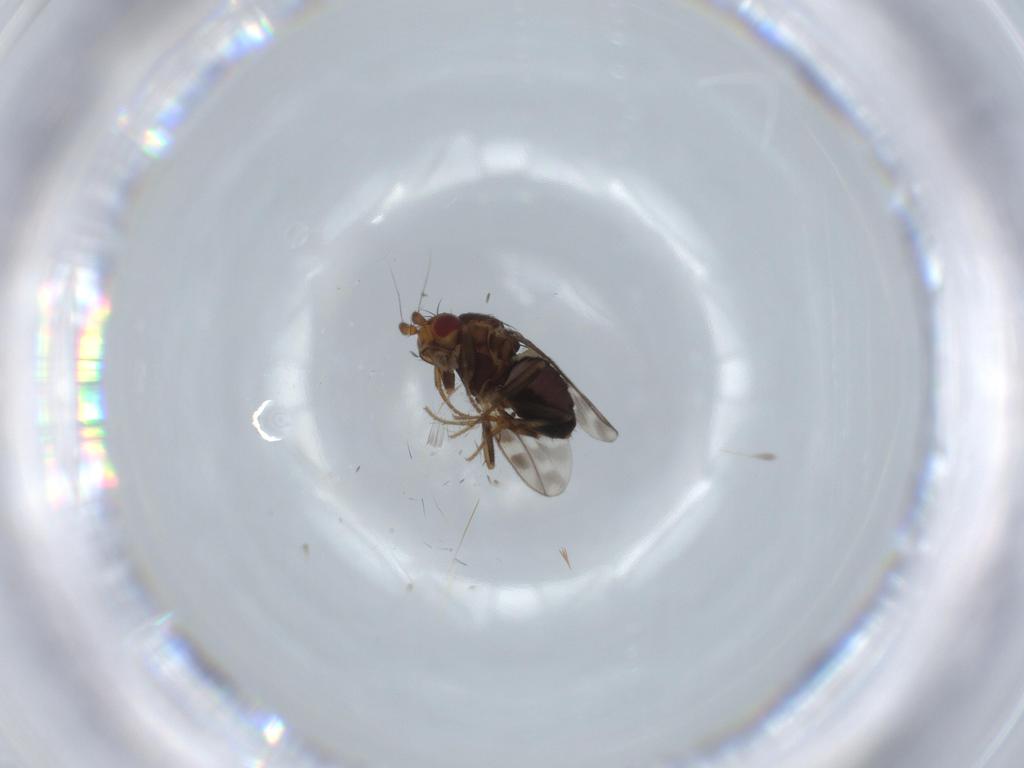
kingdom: Animalia
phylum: Arthropoda
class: Insecta
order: Diptera
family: Sphaeroceridae
